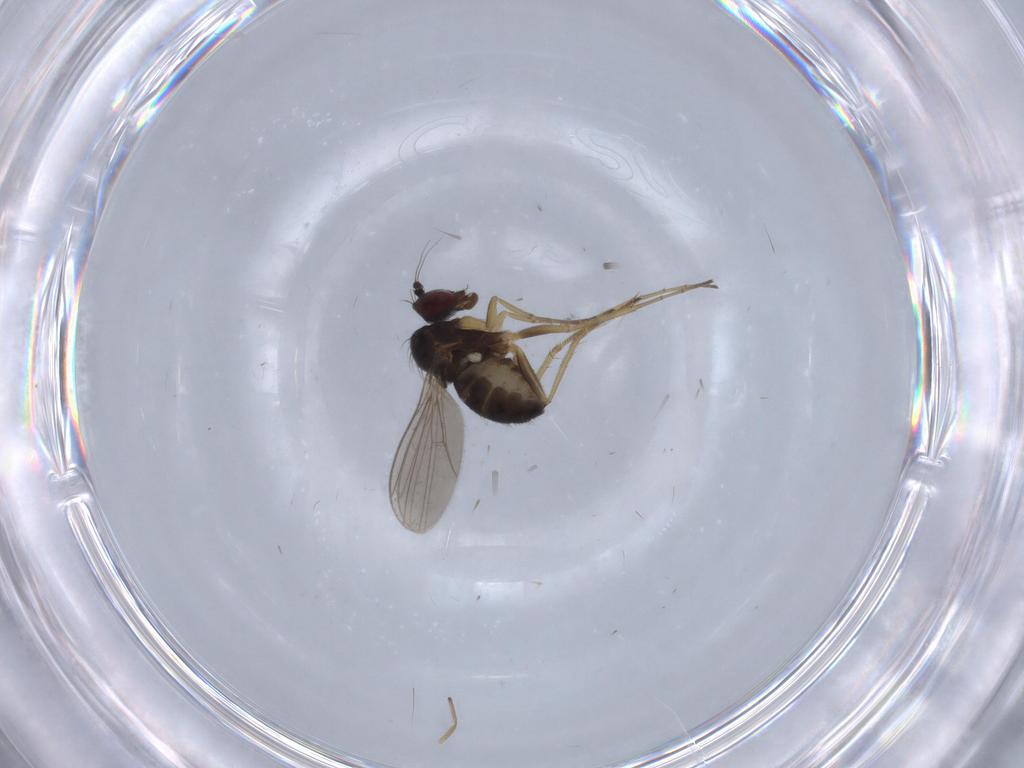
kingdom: Animalia
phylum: Arthropoda
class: Insecta
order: Diptera
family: Dolichopodidae
